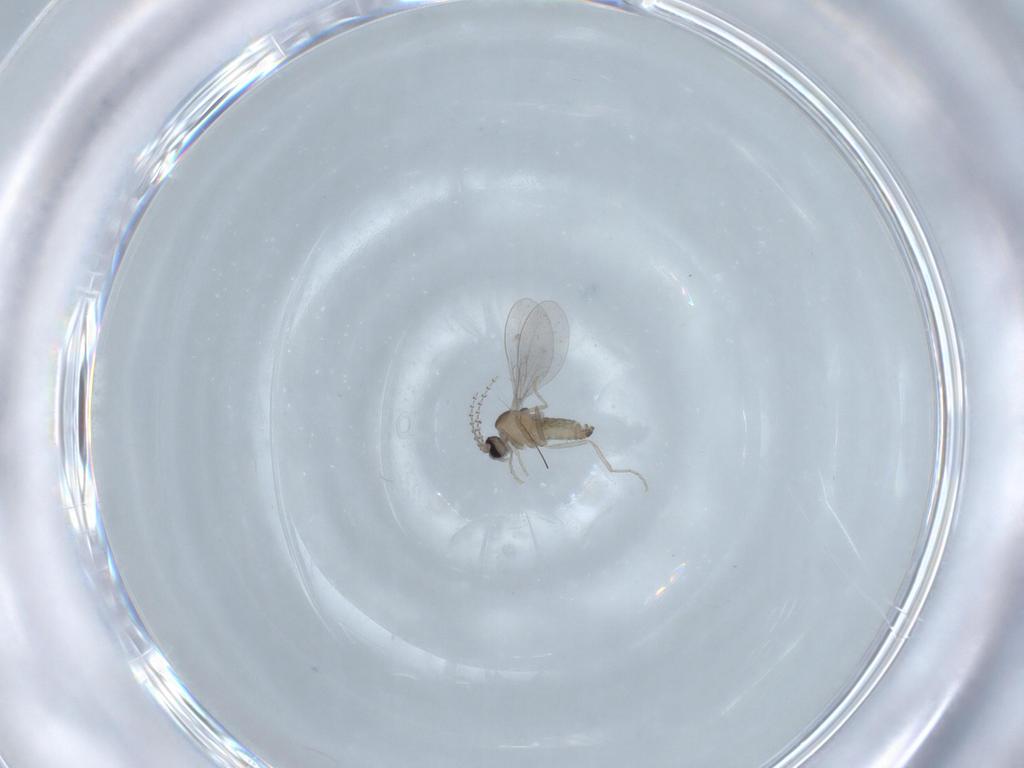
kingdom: Animalia
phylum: Arthropoda
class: Insecta
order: Diptera
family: Cecidomyiidae
